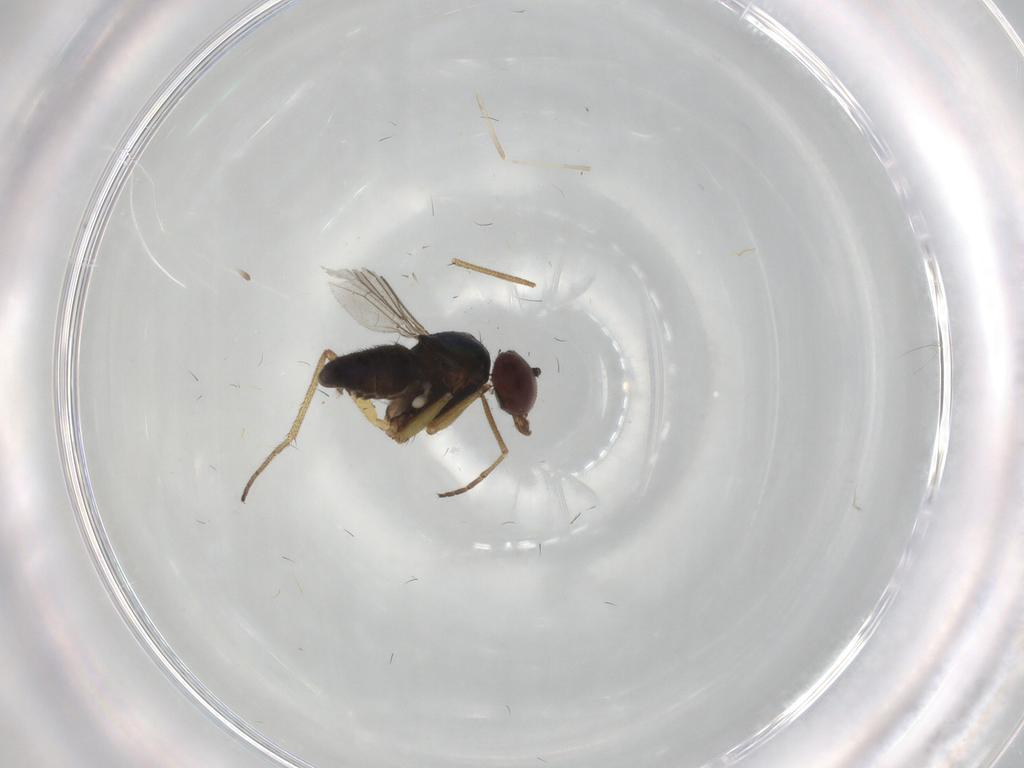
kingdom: Animalia
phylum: Arthropoda
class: Insecta
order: Diptera
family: Dolichopodidae
